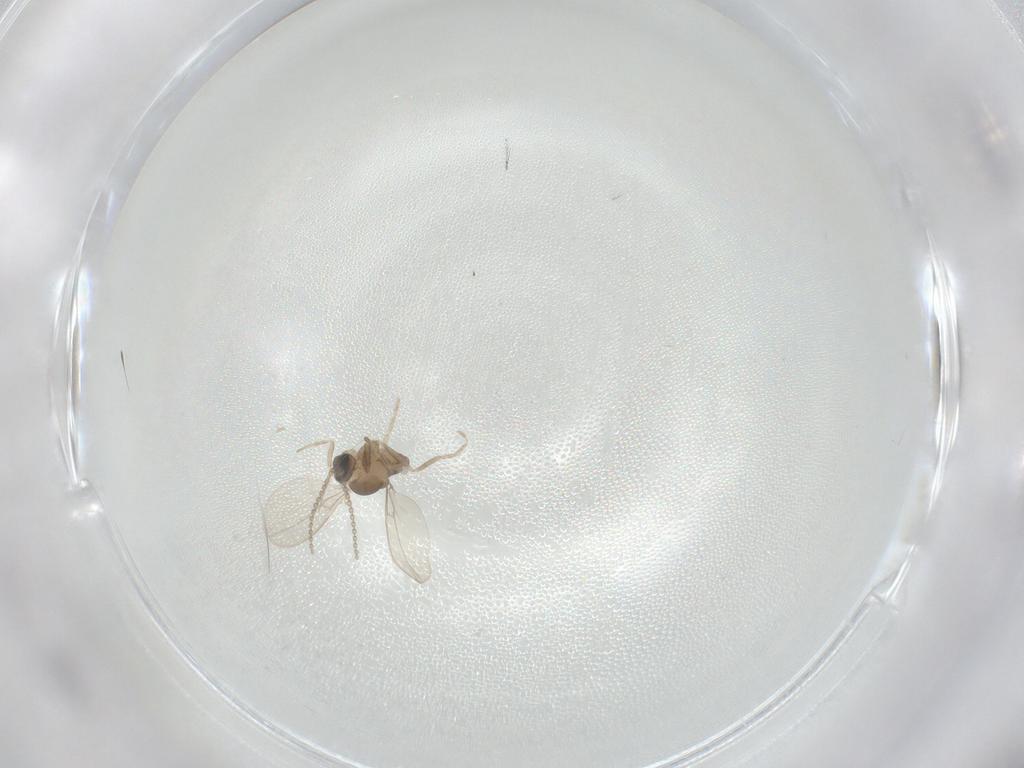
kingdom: Animalia
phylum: Arthropoda
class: Insecta
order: Diptera
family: Cecidomyiidae
